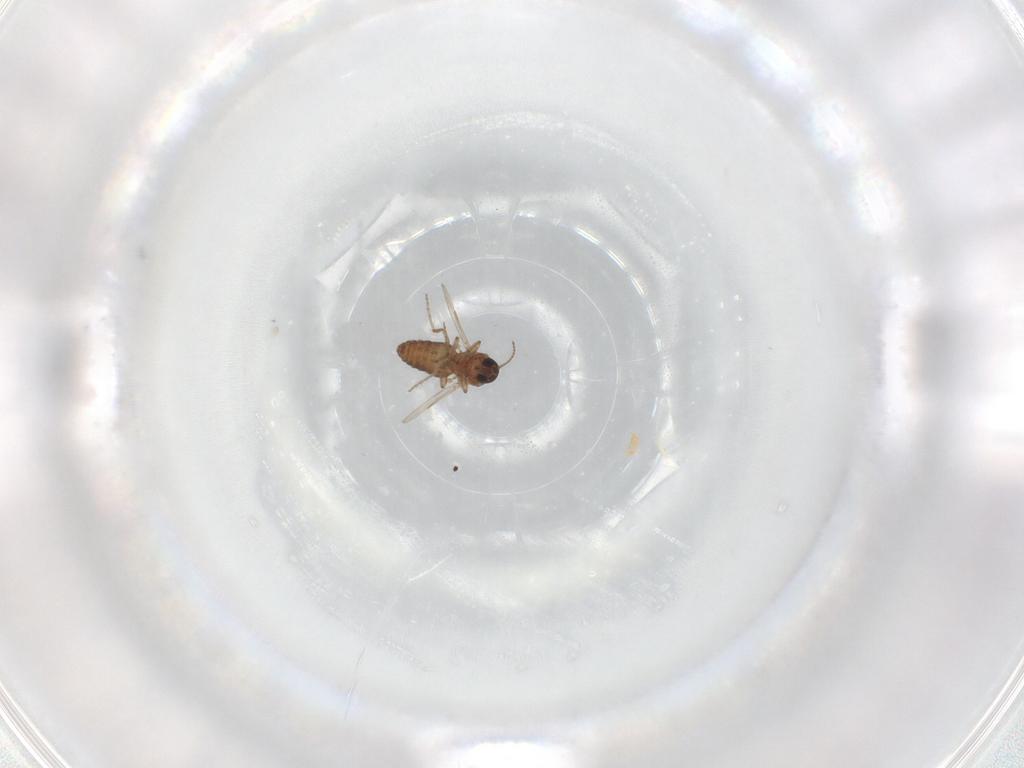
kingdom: Animalia
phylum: Arthropoda
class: Insecta
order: Diptera
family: Ceratopogonidae
